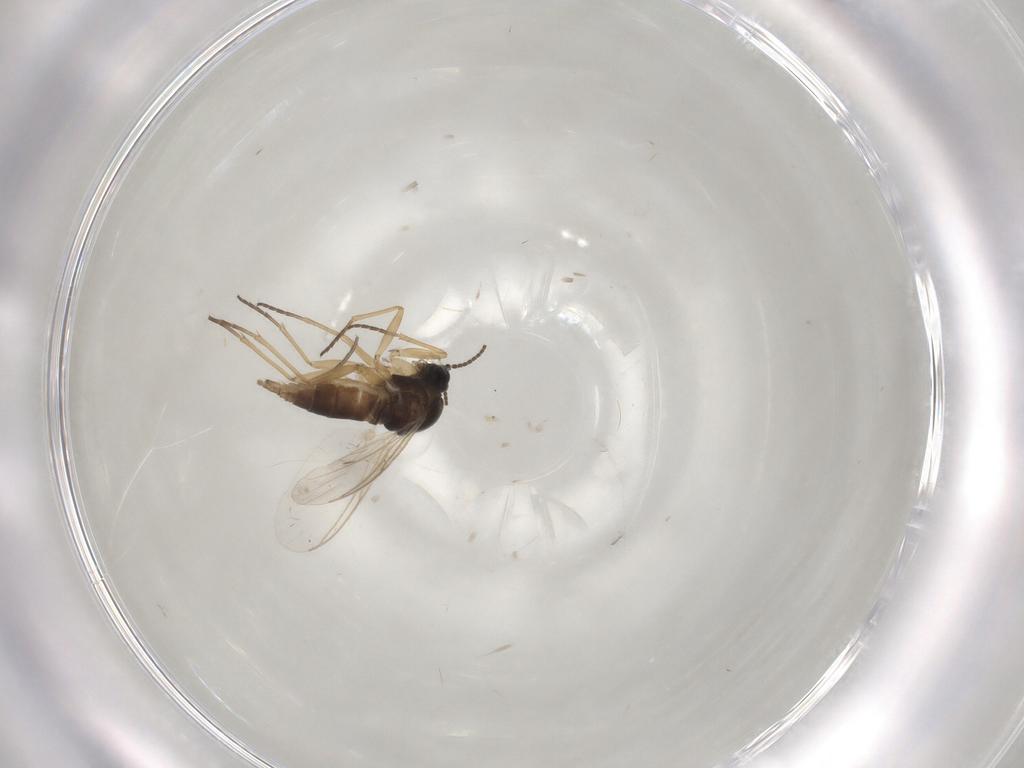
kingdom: Animalia
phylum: Arthropoda
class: Insecta
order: Diptera
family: Sciaridae
